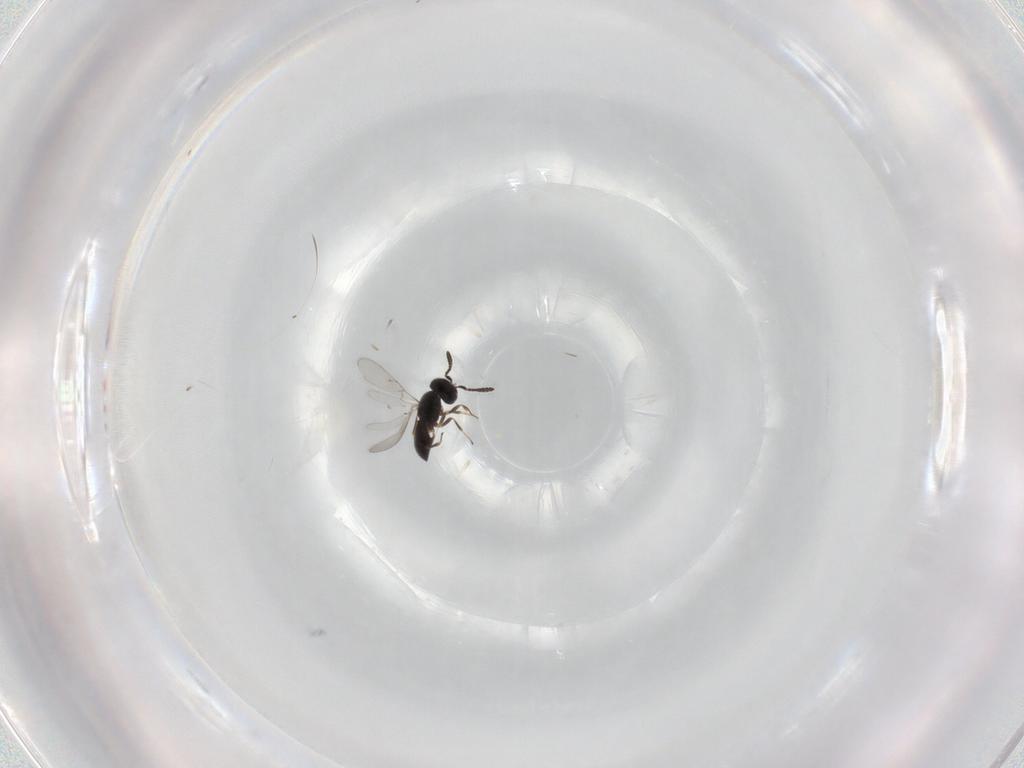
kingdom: Animalia
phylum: Arthropoda
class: Insecta
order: Hymenoptera
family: Scelionidae
